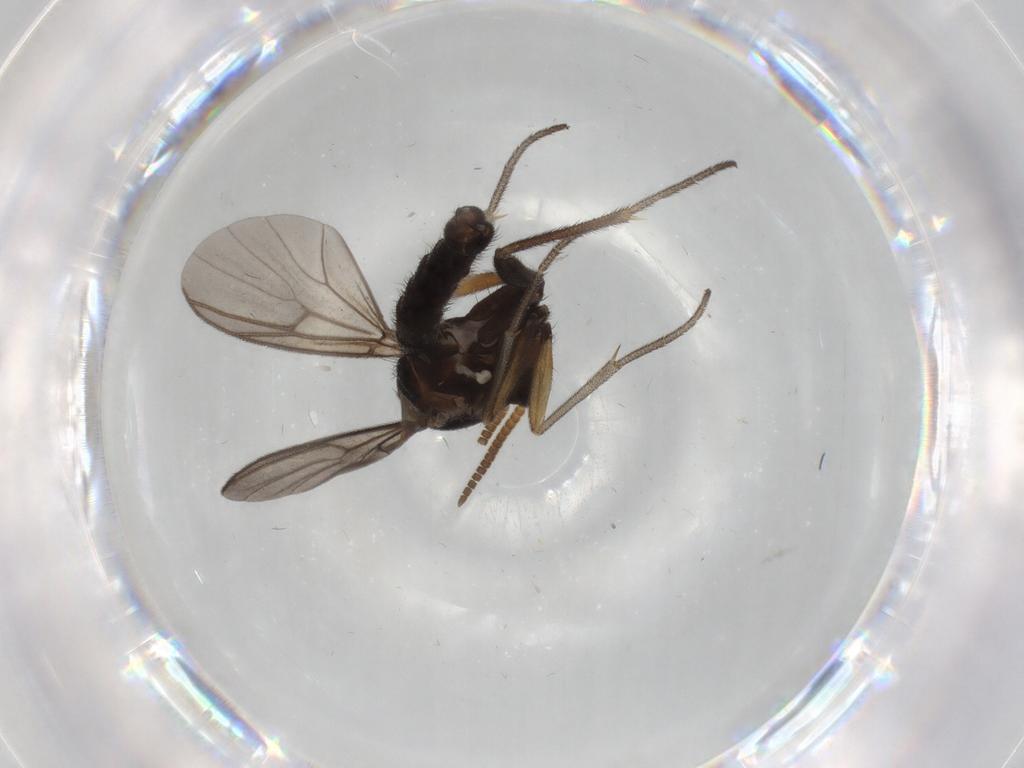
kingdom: Animalia
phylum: Arthropoda
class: Insecta
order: Diptera
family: Mycetophilidae
